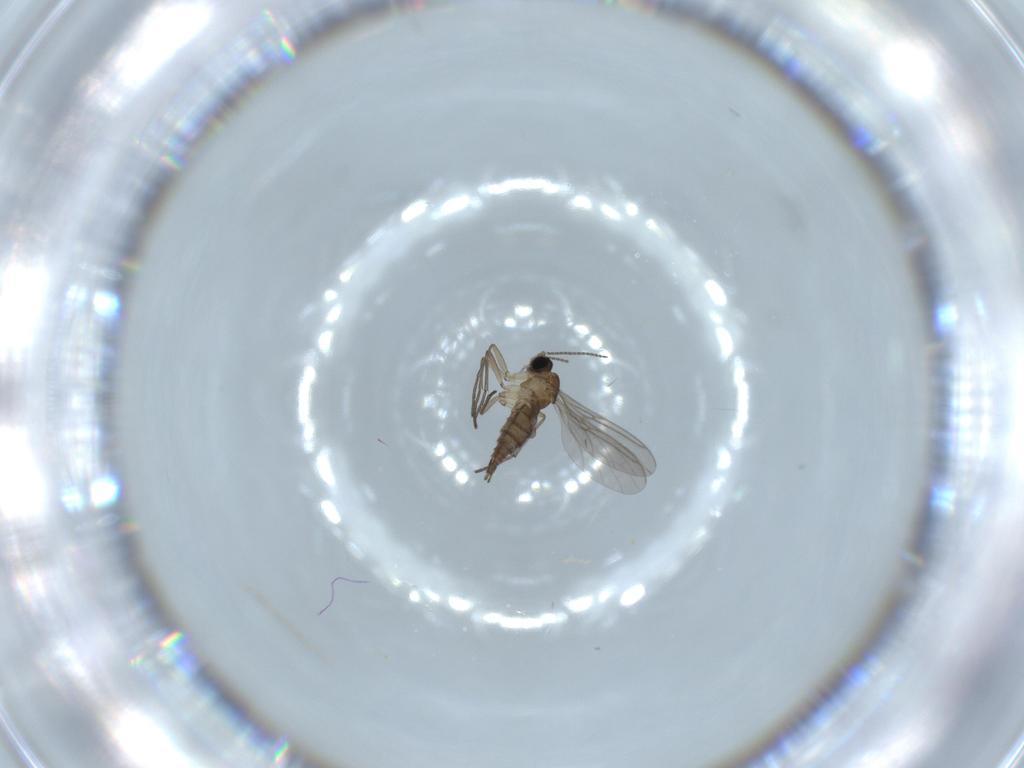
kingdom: Animalia
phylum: Arthropoda
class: Insecta
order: Diptera
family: Sciaridae
